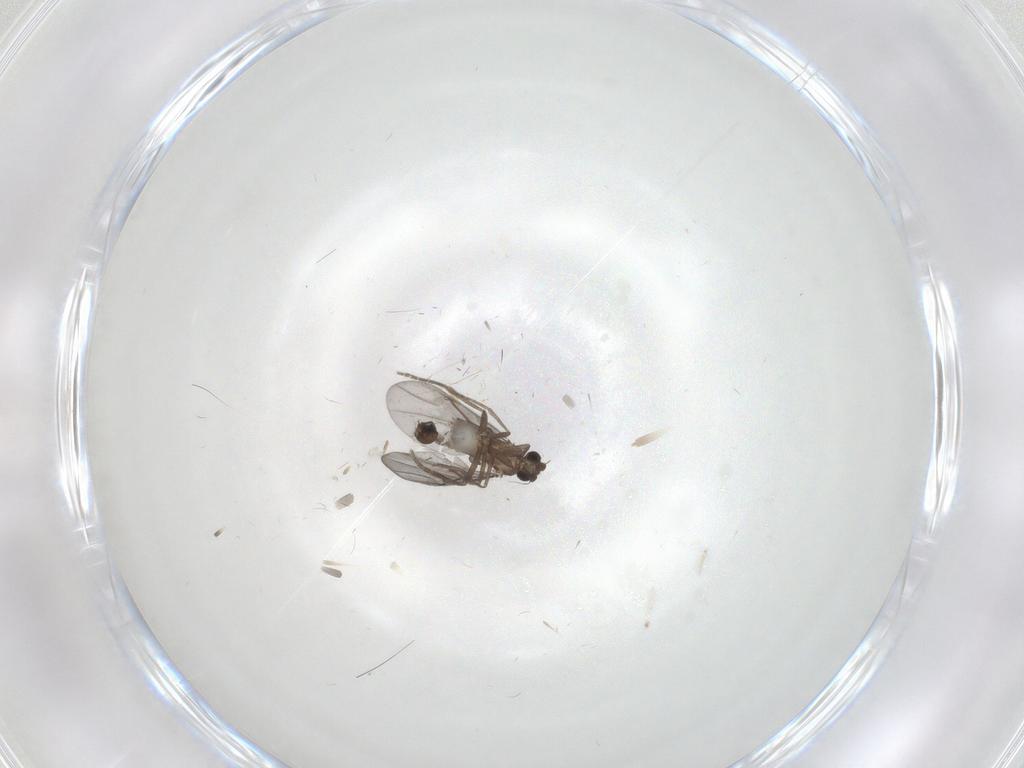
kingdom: Animalia
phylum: Arthropoda
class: Insecta
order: Diptera
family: Phoridae
